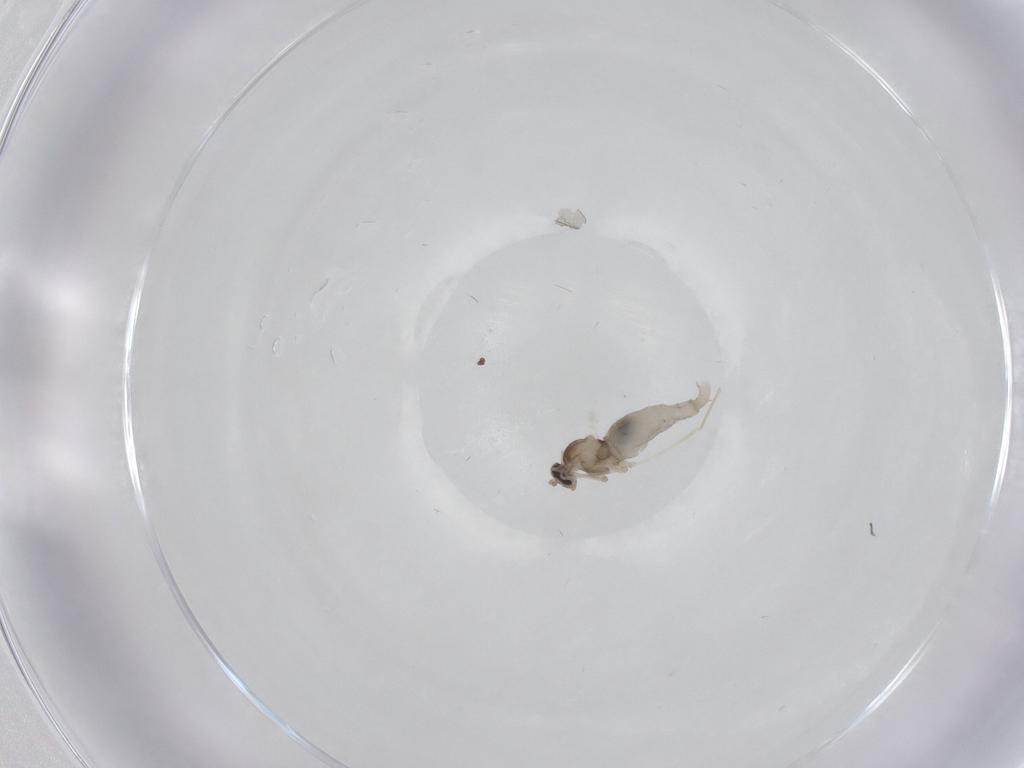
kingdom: Animalia
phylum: Arthropoda
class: Insecta
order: Diptera
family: Cecidomyiidae
